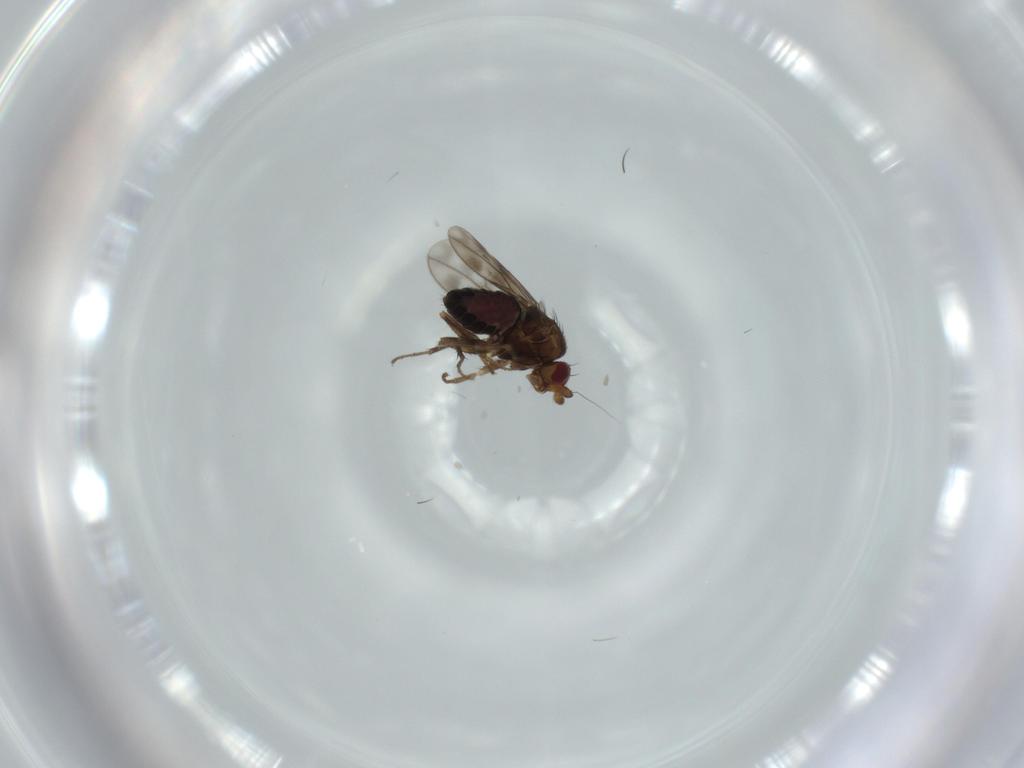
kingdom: Animalia
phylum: Arthropoda
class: Insecta
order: Diptera
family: Sphaeroceridae
